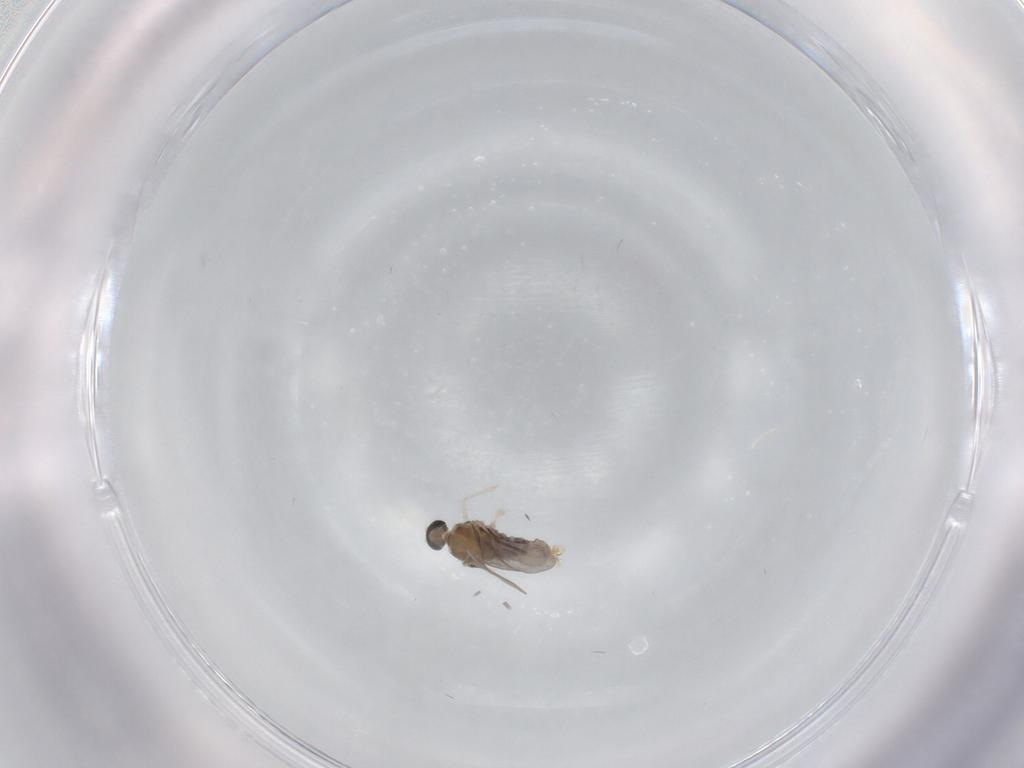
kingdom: Animalia
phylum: Arthropoda
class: Insecta
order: Diptera
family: Cecidomyiidae
